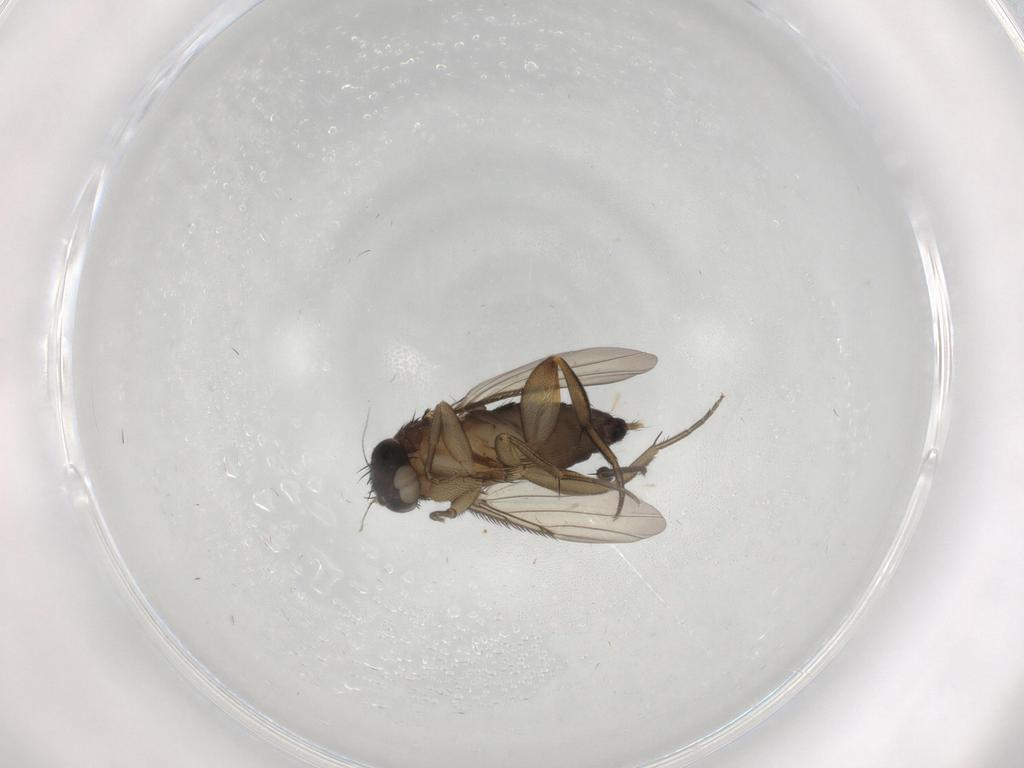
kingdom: Animalia
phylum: Arthropoda
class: Insecta
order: Diptera
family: Phoridae
